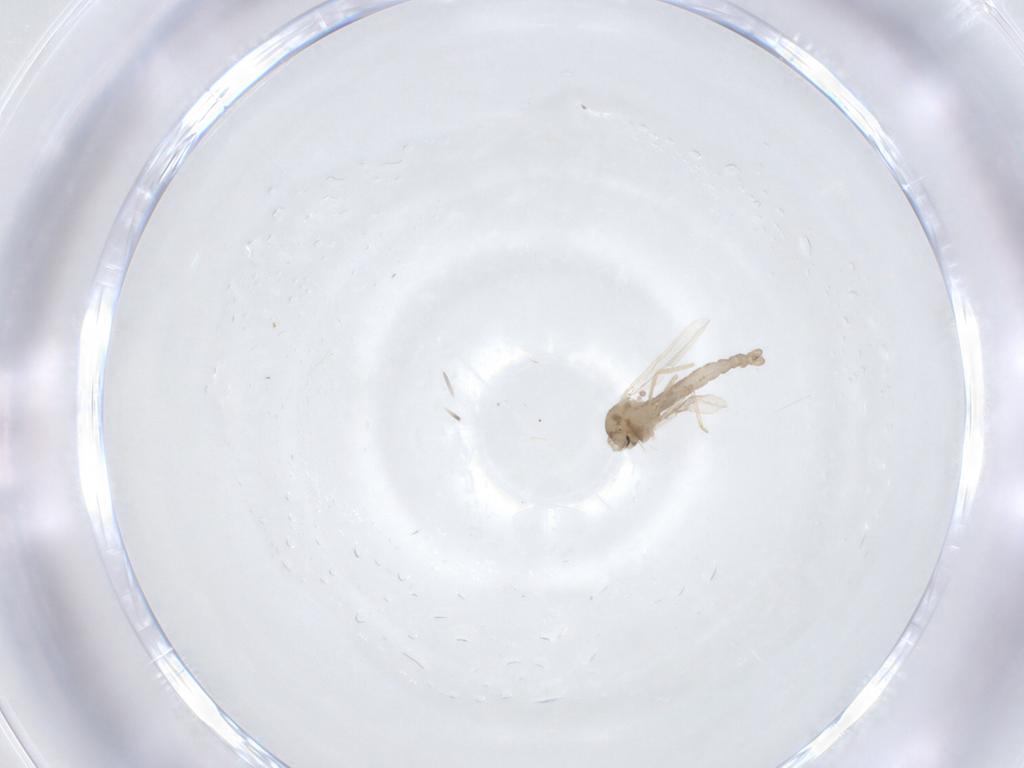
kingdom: Animalia
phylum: Arthropoda
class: Insecta
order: Diptera
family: Ceratopogonidae
